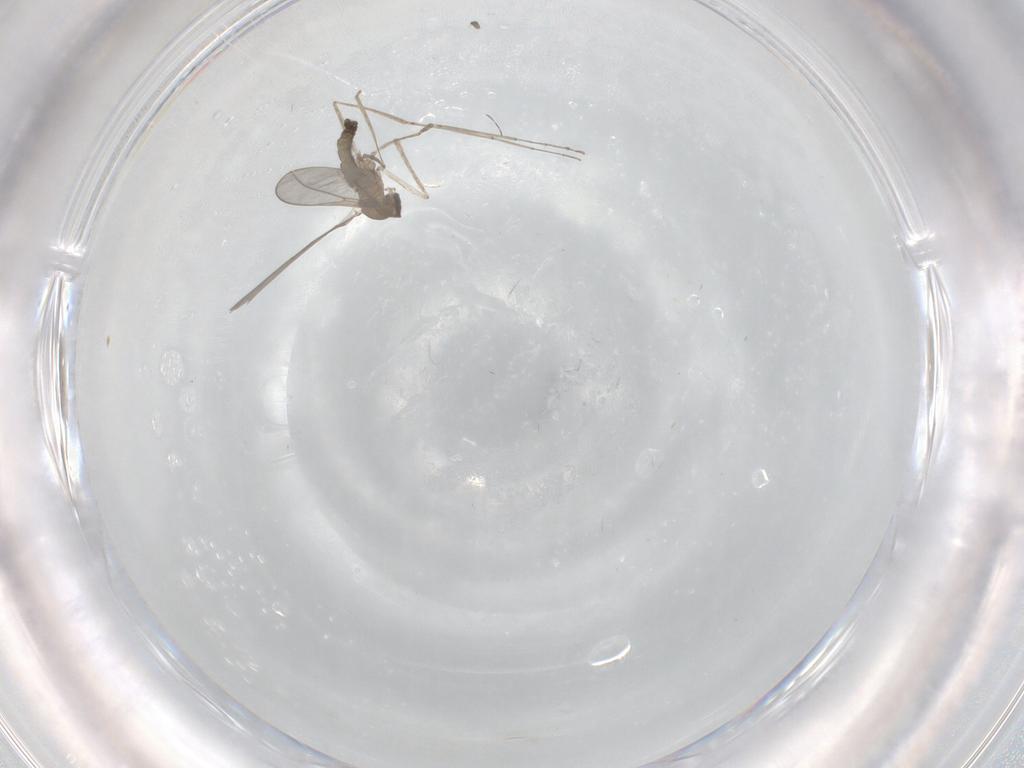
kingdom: Animalia
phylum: Arthropoda
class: Insecta
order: Diptera
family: Cecidomyiidae
